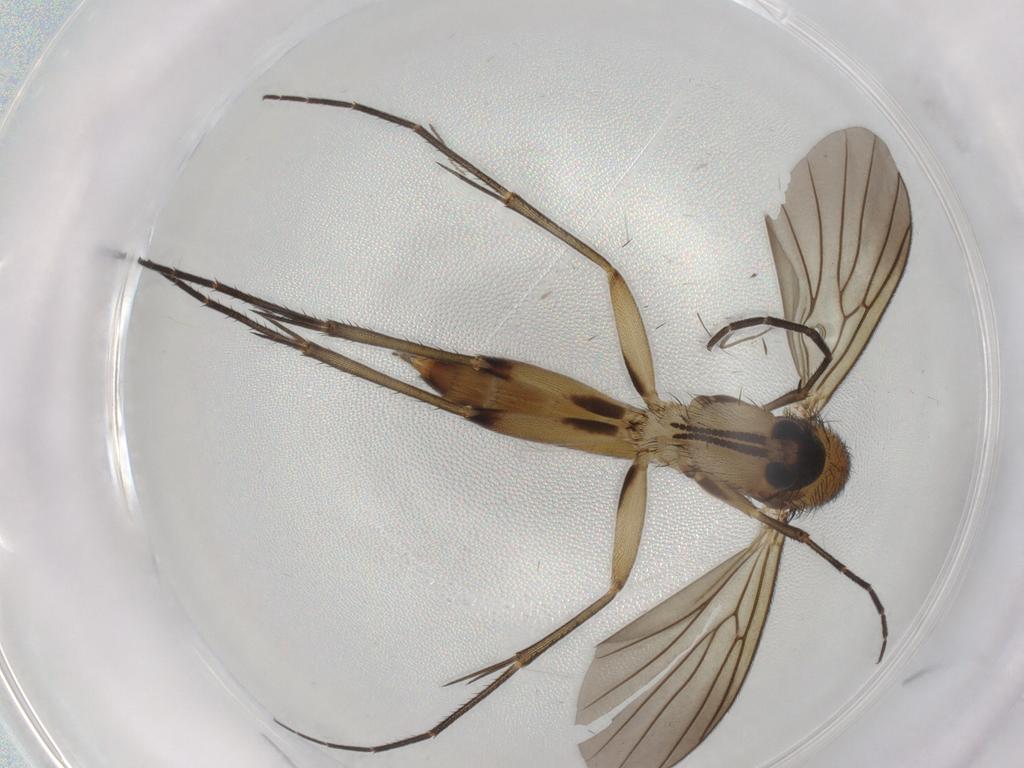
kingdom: Animalia
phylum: Arthropoda
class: Insecta
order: Diptera
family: Mycetophilidae
